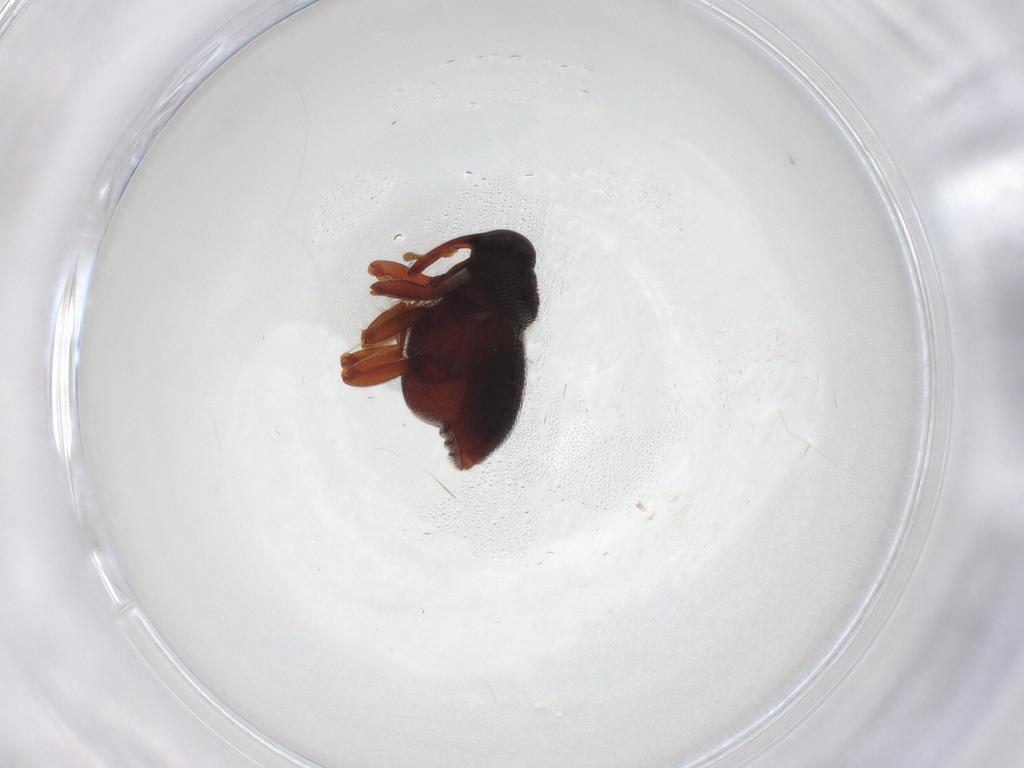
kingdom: Animalia
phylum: Arthropoda
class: Insecta
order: Coleoptera
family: Curculionidae
